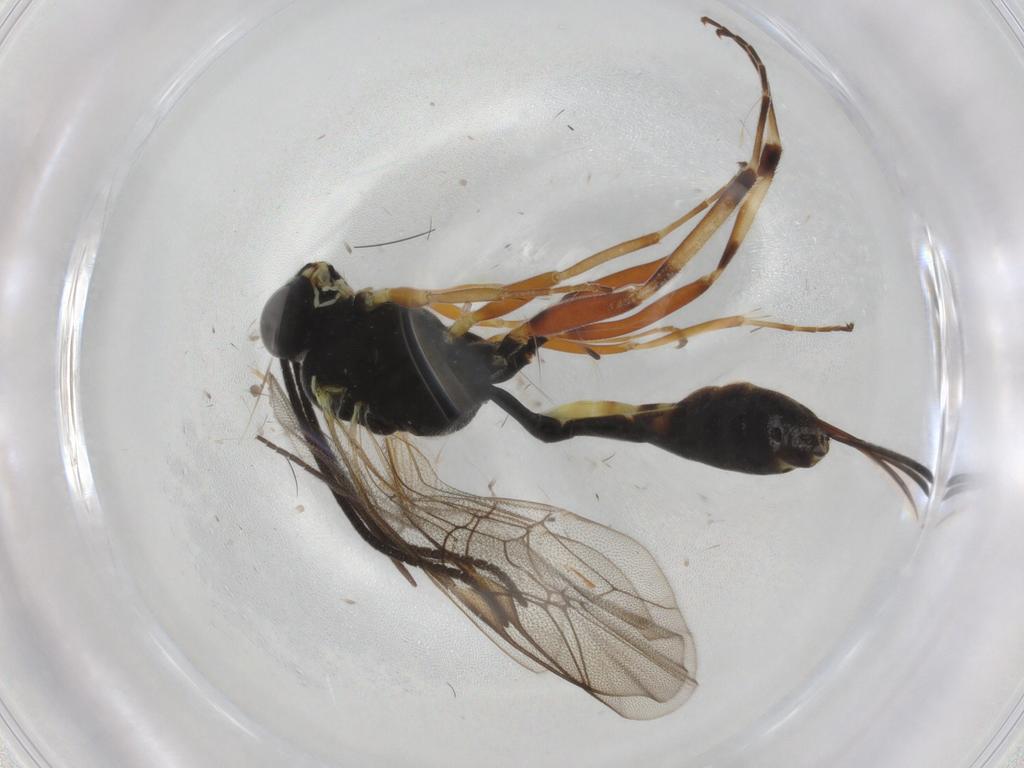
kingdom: Animalia
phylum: Arthropoda
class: Insecta
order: Hymenoptera
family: Ichneumonidae
